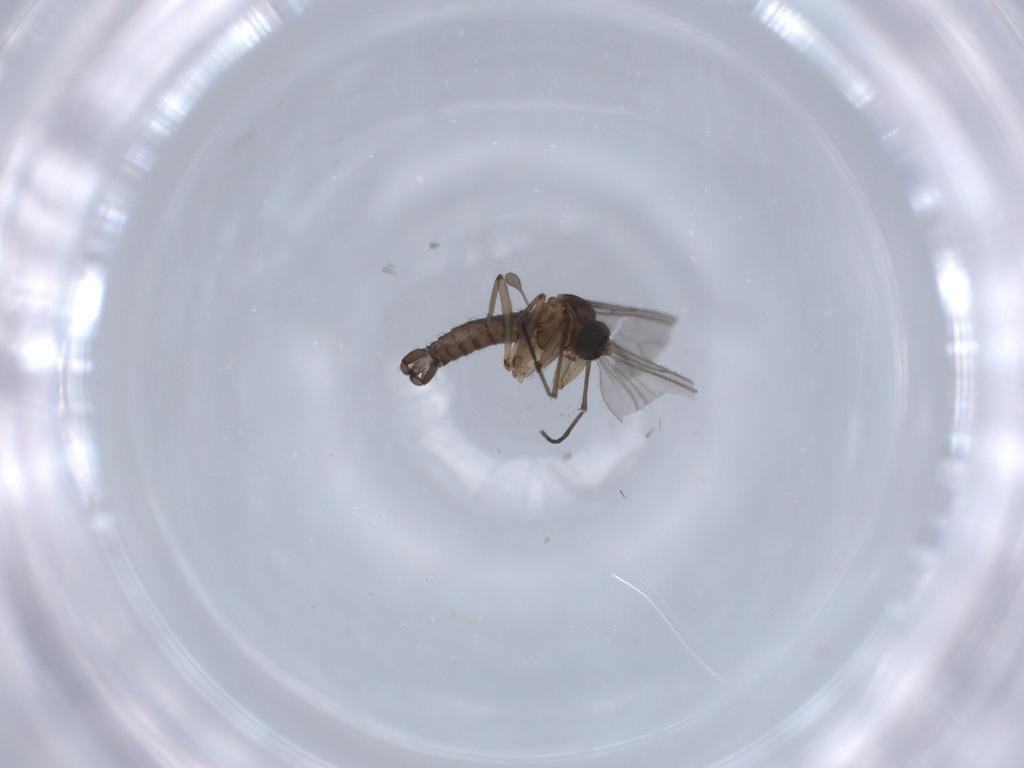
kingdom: Animalia
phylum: Arthropoda
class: Insecta
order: Diptera
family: Sciaridae
